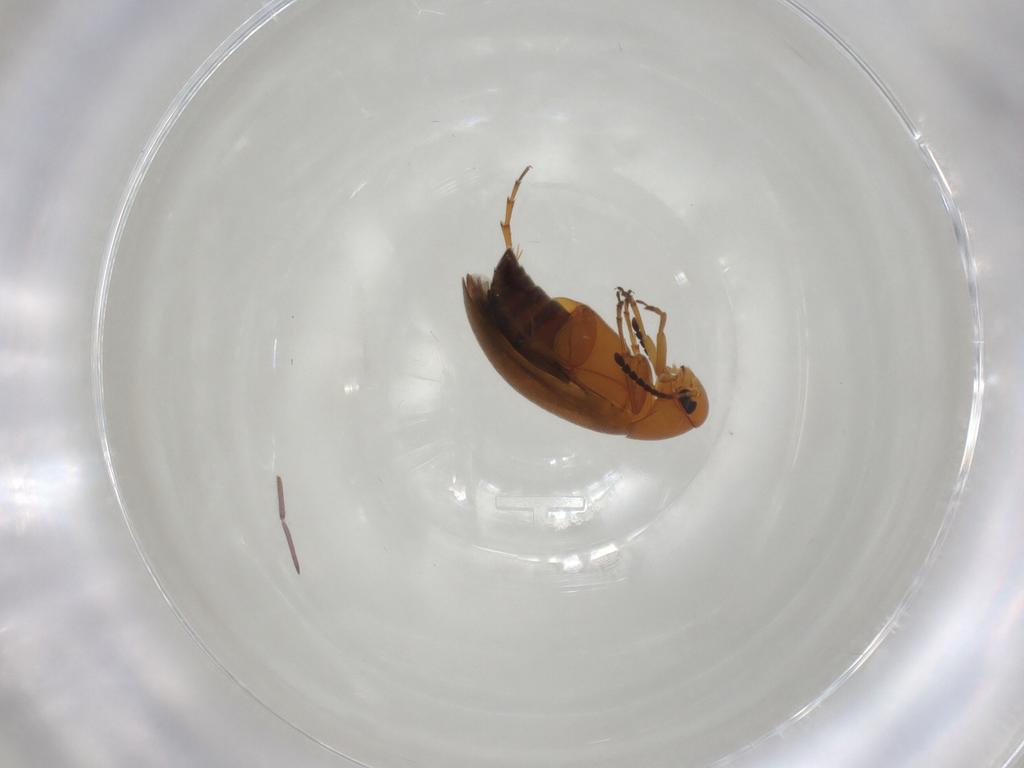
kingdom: Animalia
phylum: Arthropoda
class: Insecta
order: Coleoptera
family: Scraptiidae
